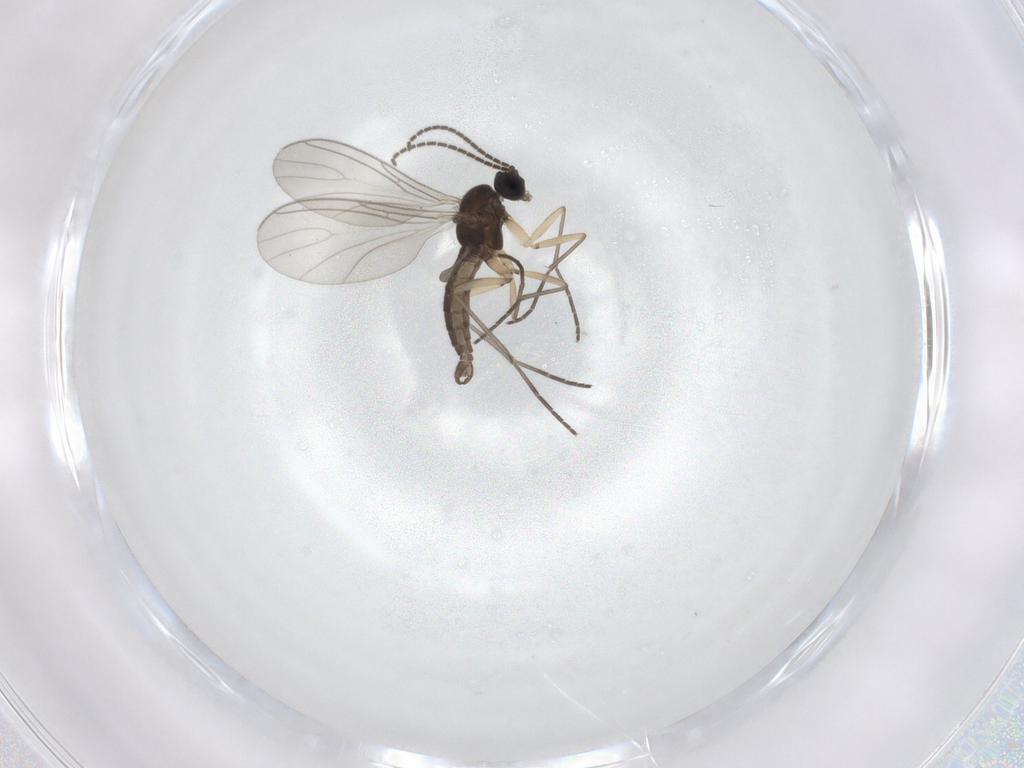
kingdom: Animalia
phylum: Arthropoda
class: Insecta
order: Diptera
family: Sciaridae
